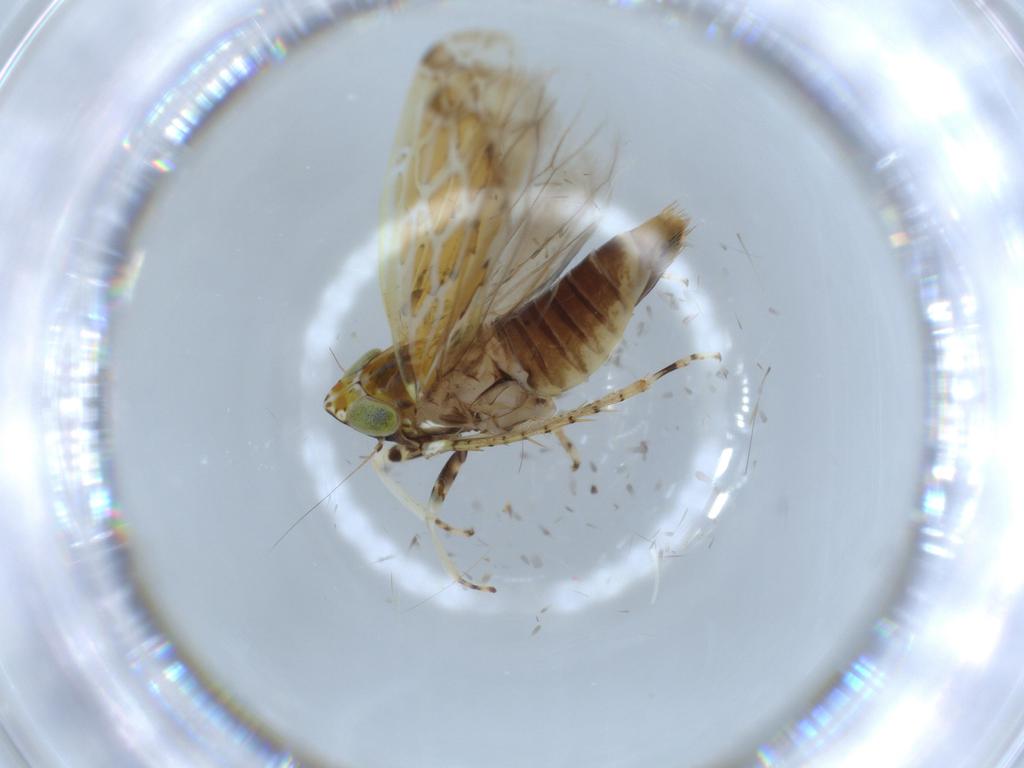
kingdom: Animalia
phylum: Arthropoda
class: Insecta
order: Hemiptera
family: Cicadellidae
